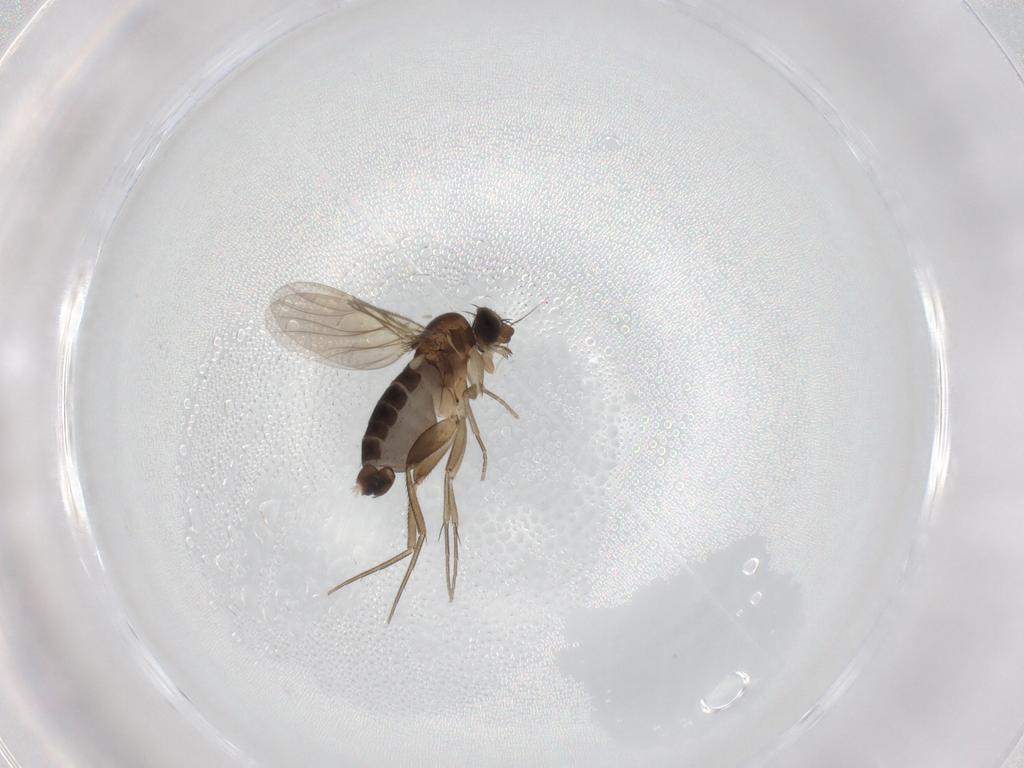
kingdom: Animalia
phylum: Arthropoda
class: Insecta
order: Diptera
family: Phoridae
